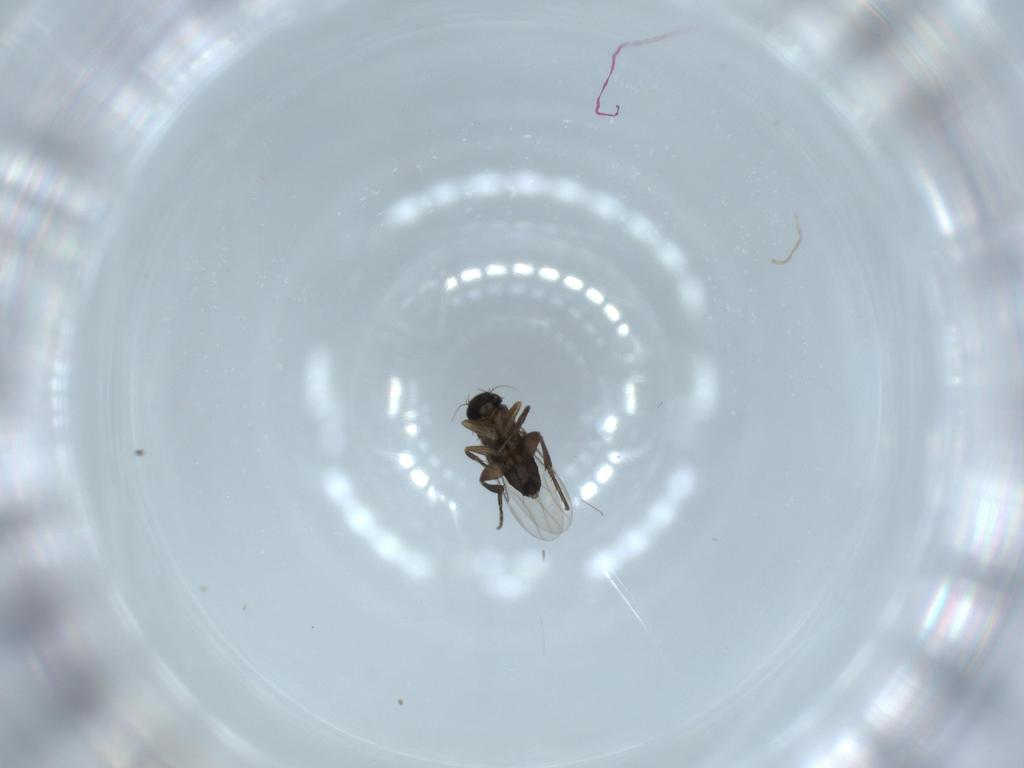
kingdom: Animalia
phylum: Arthropoda
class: Insecta
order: Diptera
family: Phoridae
